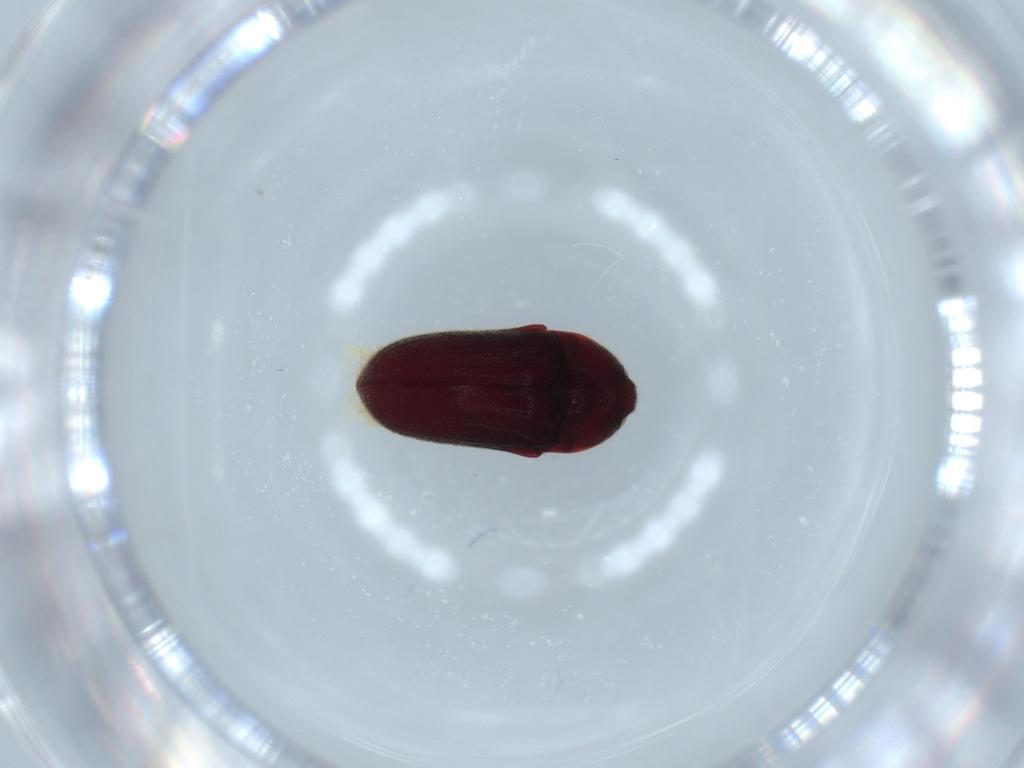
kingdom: Animalia
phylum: Arthropoda
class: Insecta
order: Coleoptera
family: Throscidae
